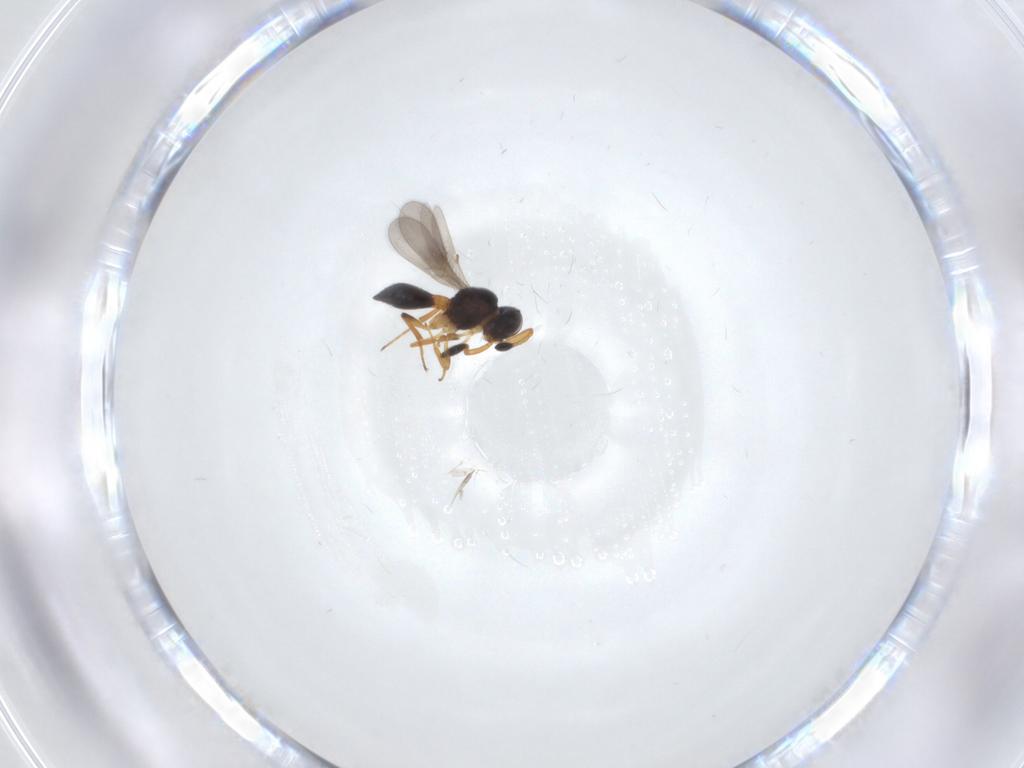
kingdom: Animalia
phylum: Arthropoda
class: Insecta
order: Hymenoptera
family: Scelionidae
